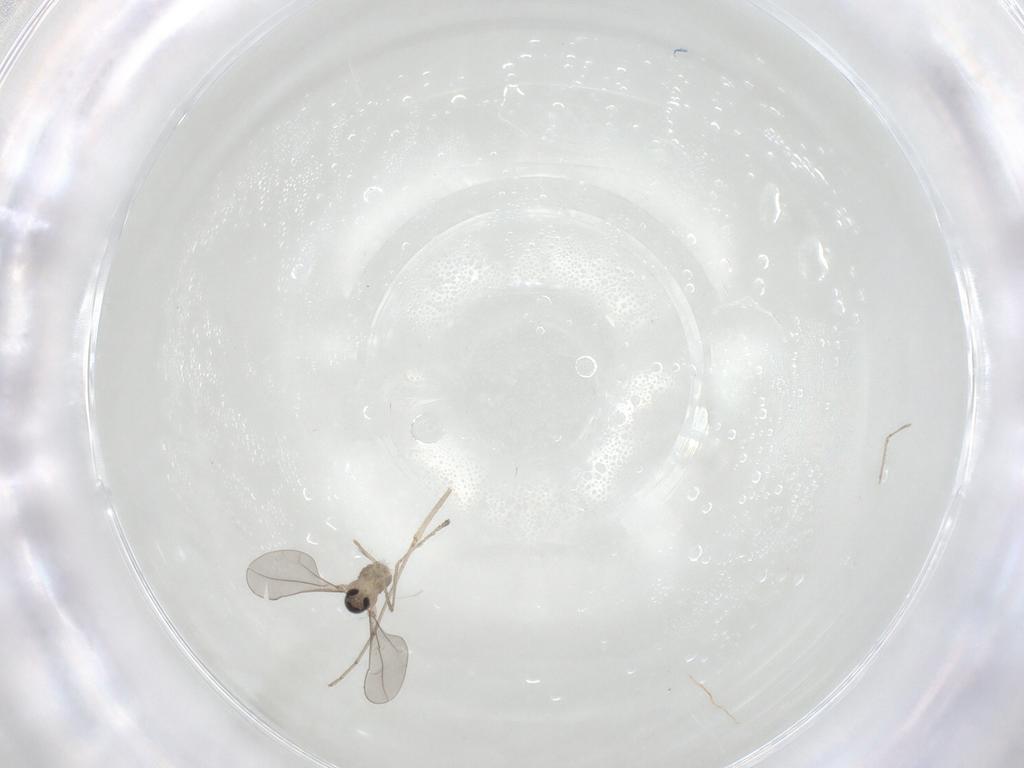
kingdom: Animalia
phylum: Arthropoda
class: Insecta
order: Diptera
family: Cecidomyiidae
